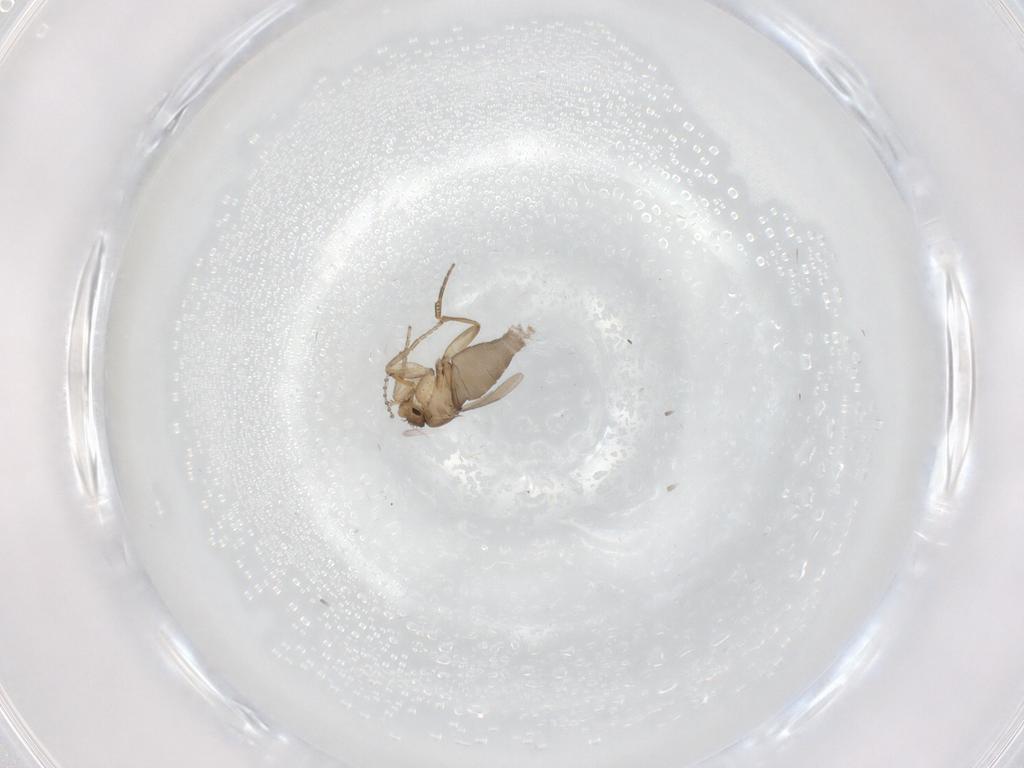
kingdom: Animalia
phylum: Arthropoda
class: Insecta
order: Diptera
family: Phoridae
